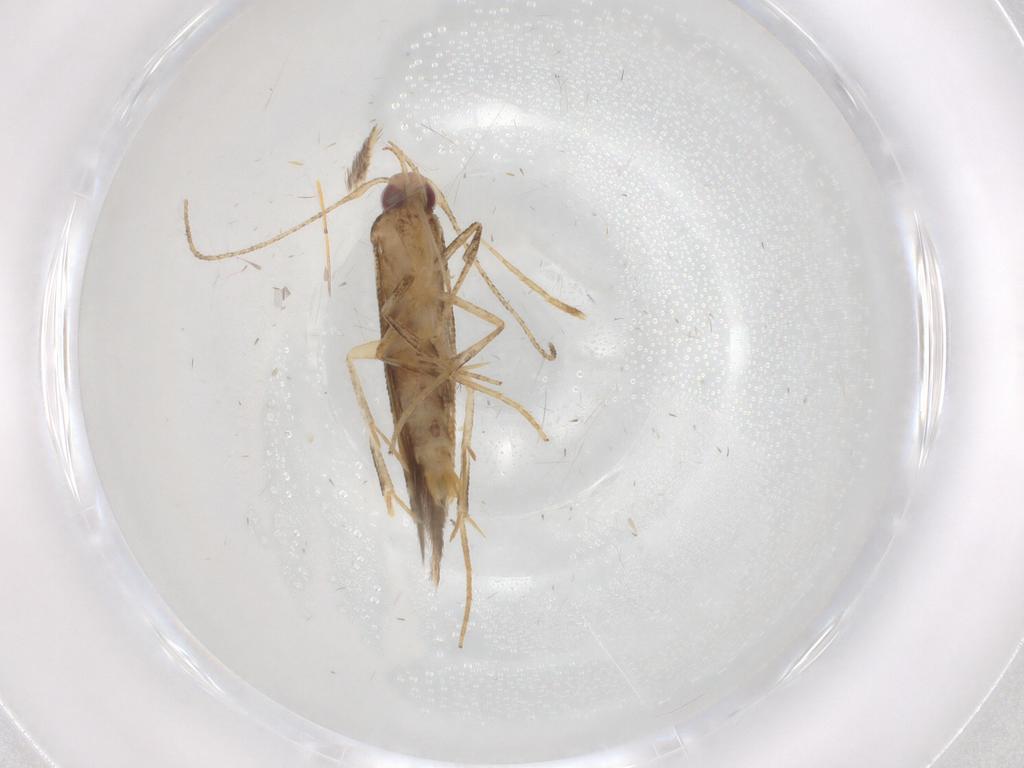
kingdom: Animalia
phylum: Arthropoda
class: Insecta
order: Lepidoptera
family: Cosmopterigidae
